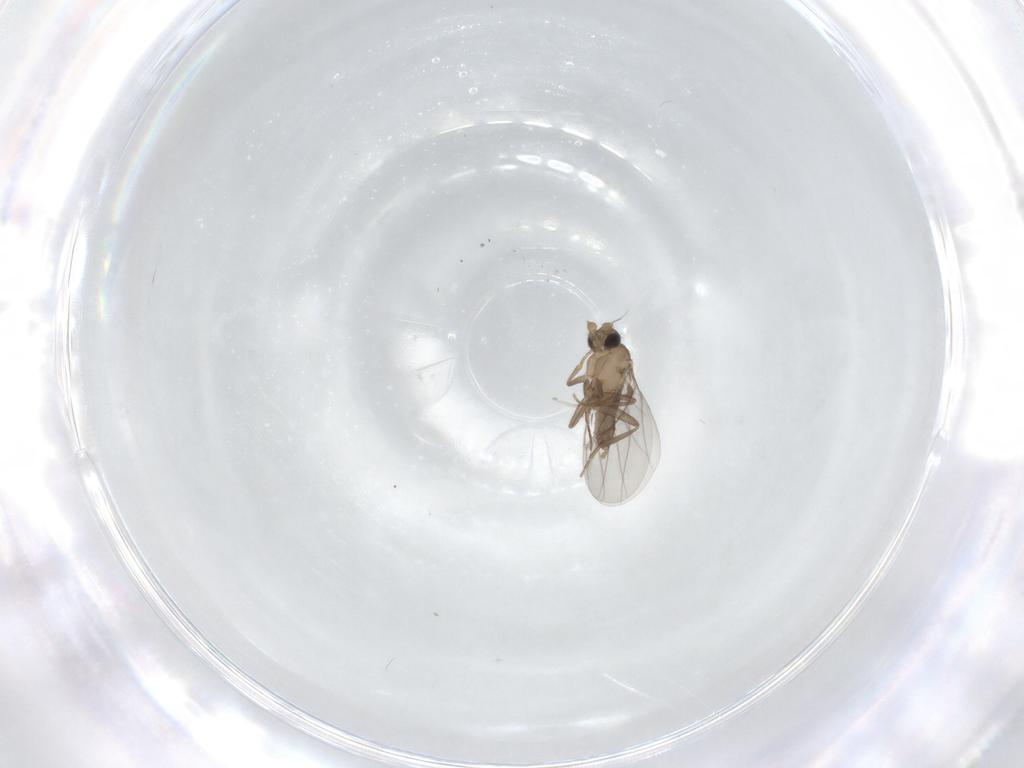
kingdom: Animalia
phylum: Arthropoda
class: Insecta
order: Diptera
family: Cecidomyiidae
